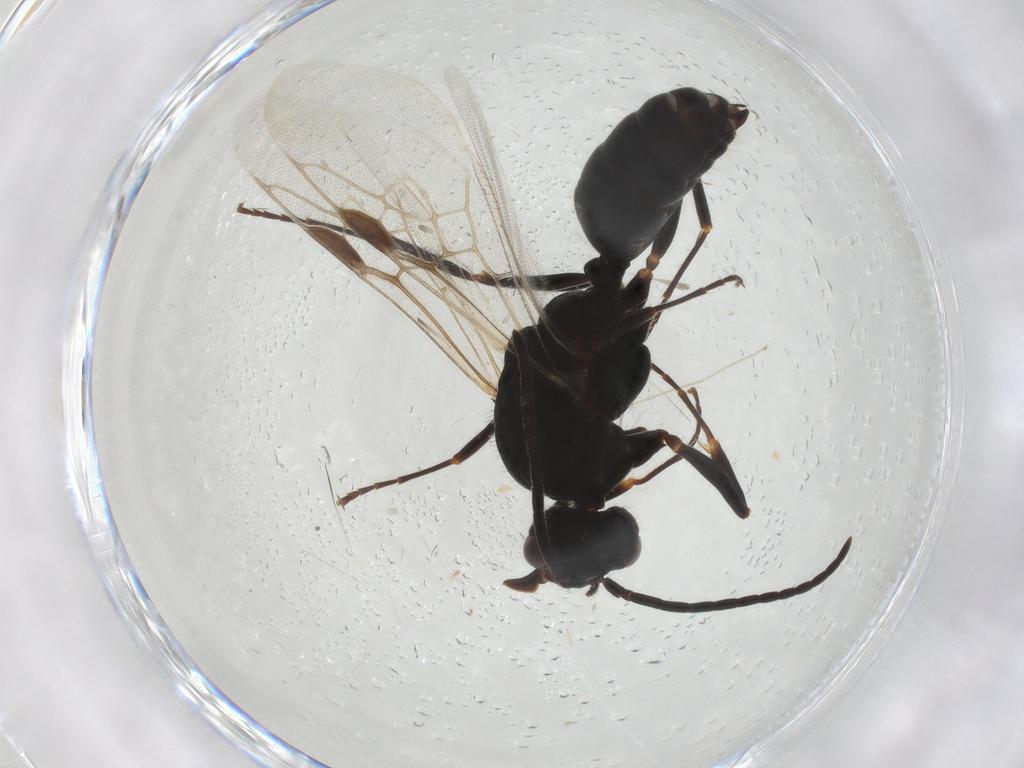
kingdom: Animalia
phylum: Arthropoda
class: Insecta
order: Hymenoptera
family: Formicidae
